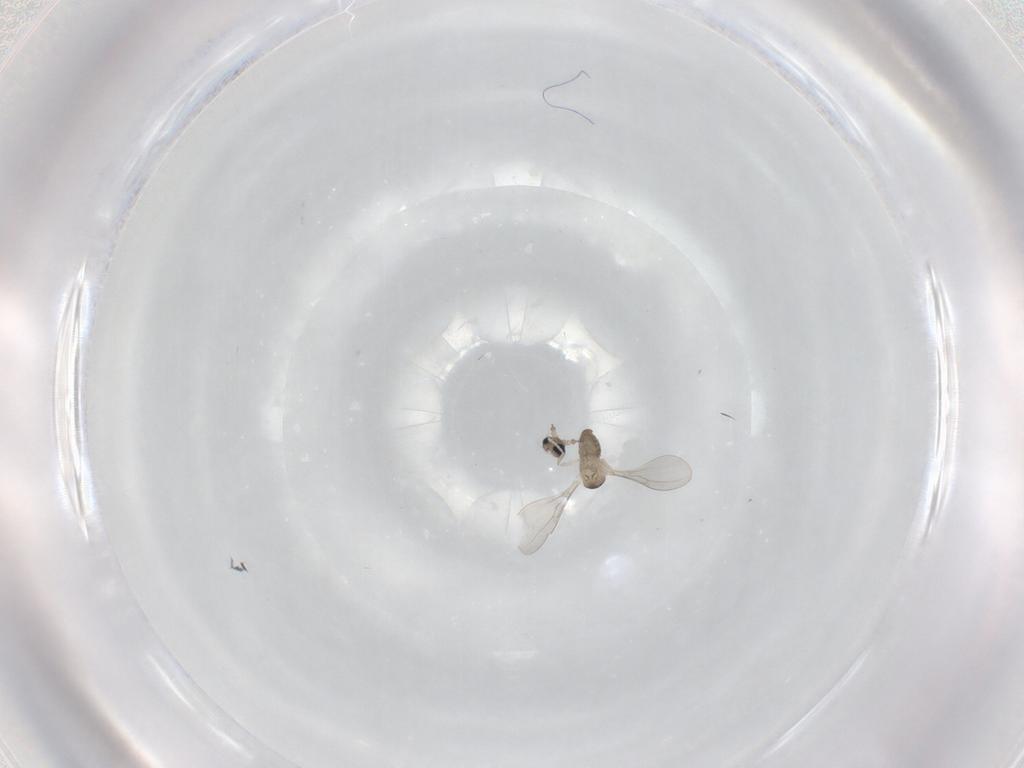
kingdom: Animalia
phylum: Arthropoda
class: Insecta
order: Diptera
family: Cecidomyiidae
